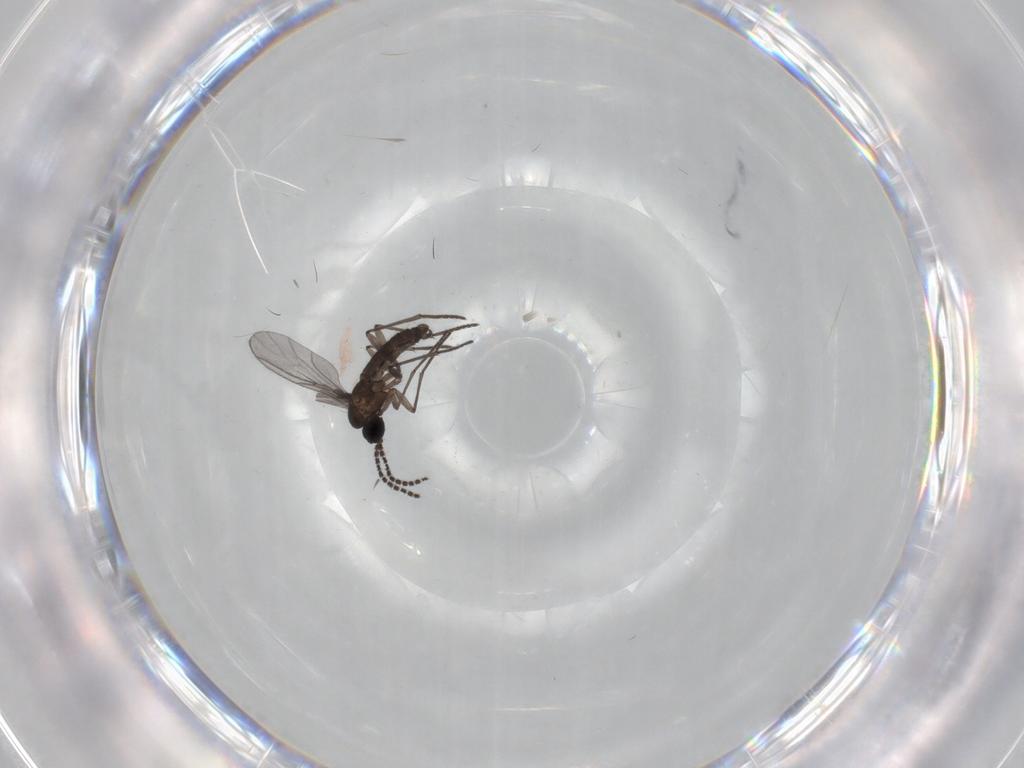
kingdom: Animalia
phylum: Arthropoda
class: Insecta
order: Diptera
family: Sciaridae
